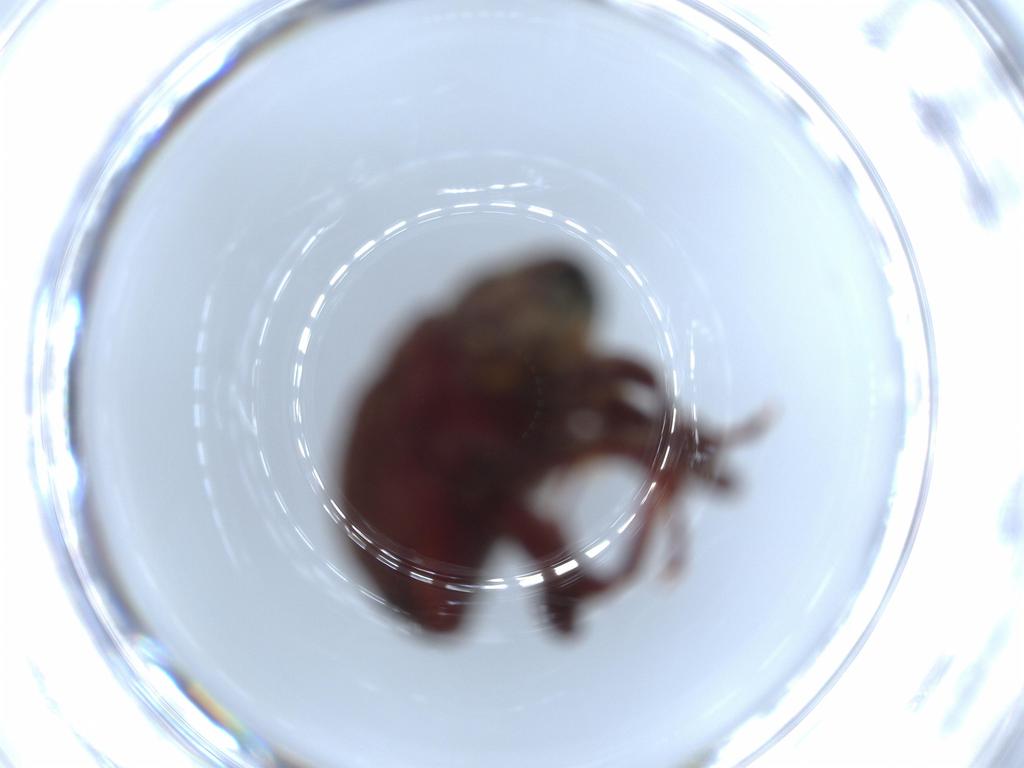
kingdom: Animalia
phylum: Arthropoda
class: Insecta
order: Coleoptera
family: Curculionidae
